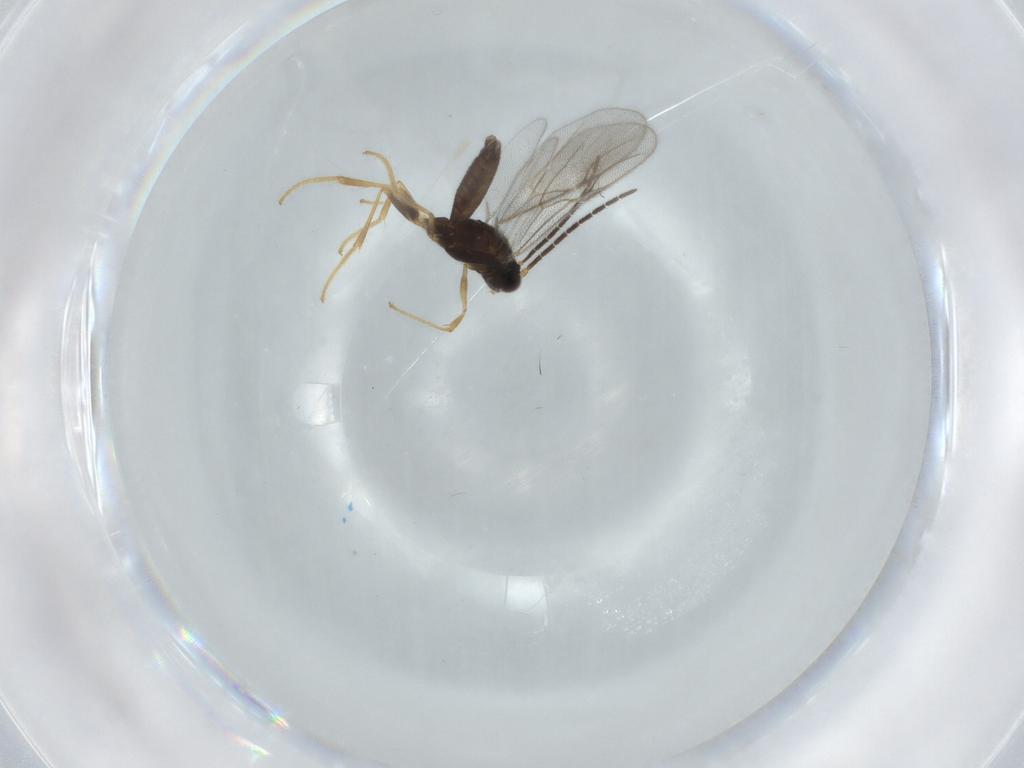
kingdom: Animalia
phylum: Arthropoda
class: Insecta
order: Hymenoptera
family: Dryinidae
